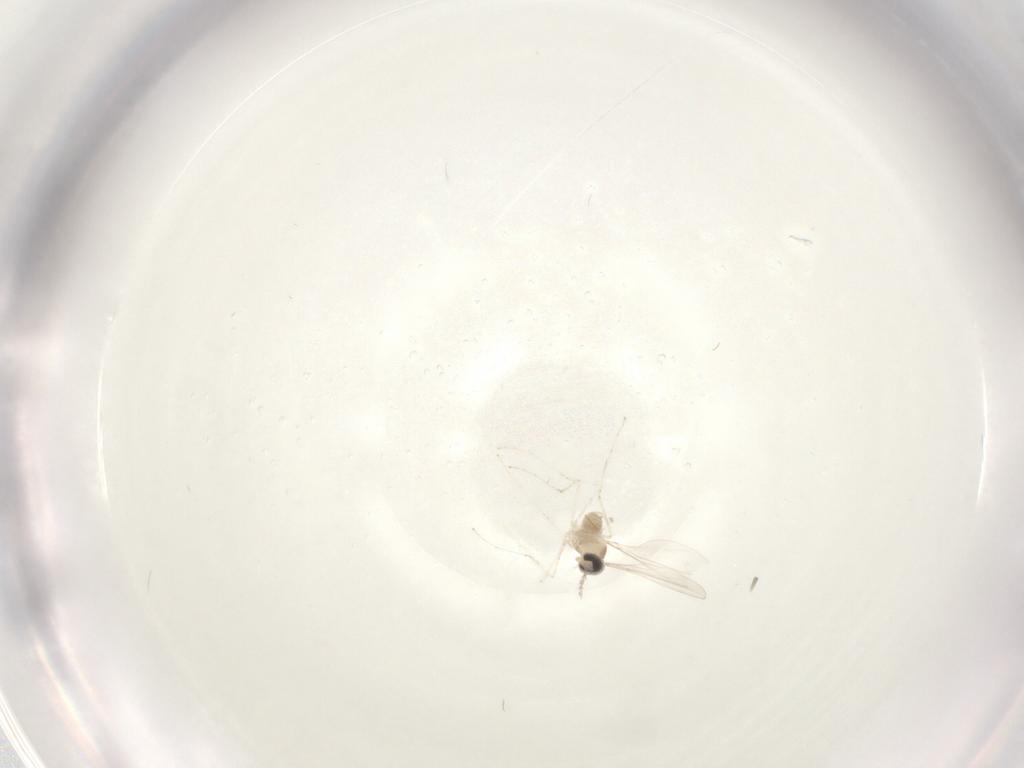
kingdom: Animalia
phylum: Arthropoda
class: Insecta
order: Diptera
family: Cecidomyiidae
